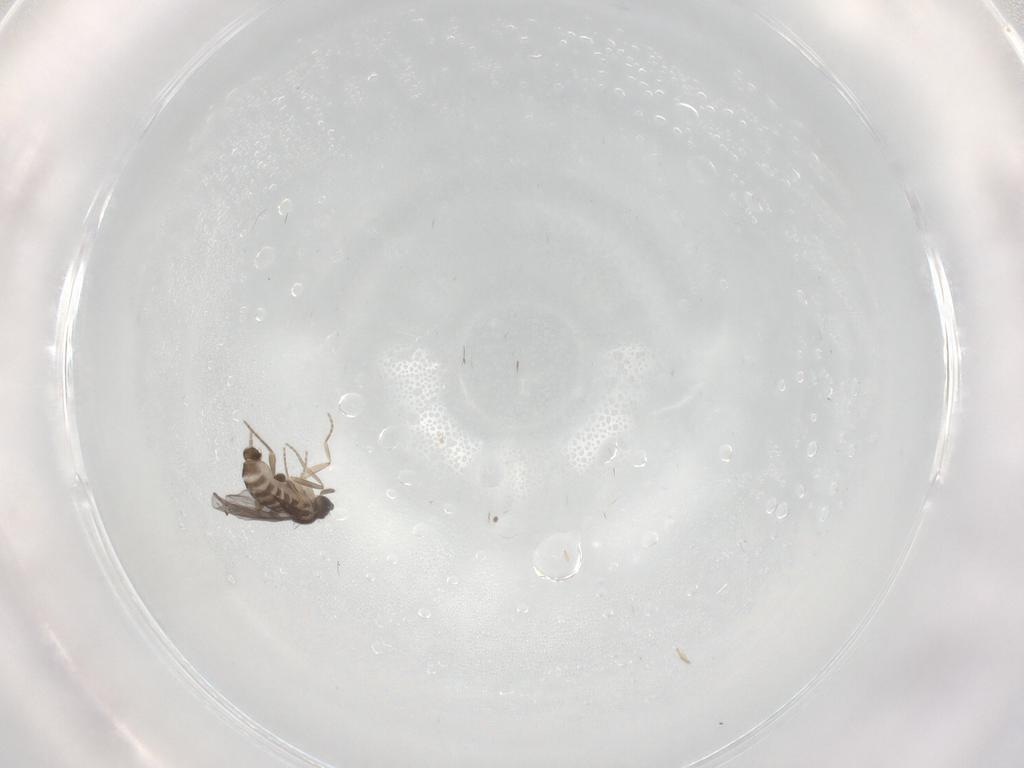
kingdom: Animalia
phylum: Arthropoda
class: Insecta
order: Diptera
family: Phoridae
